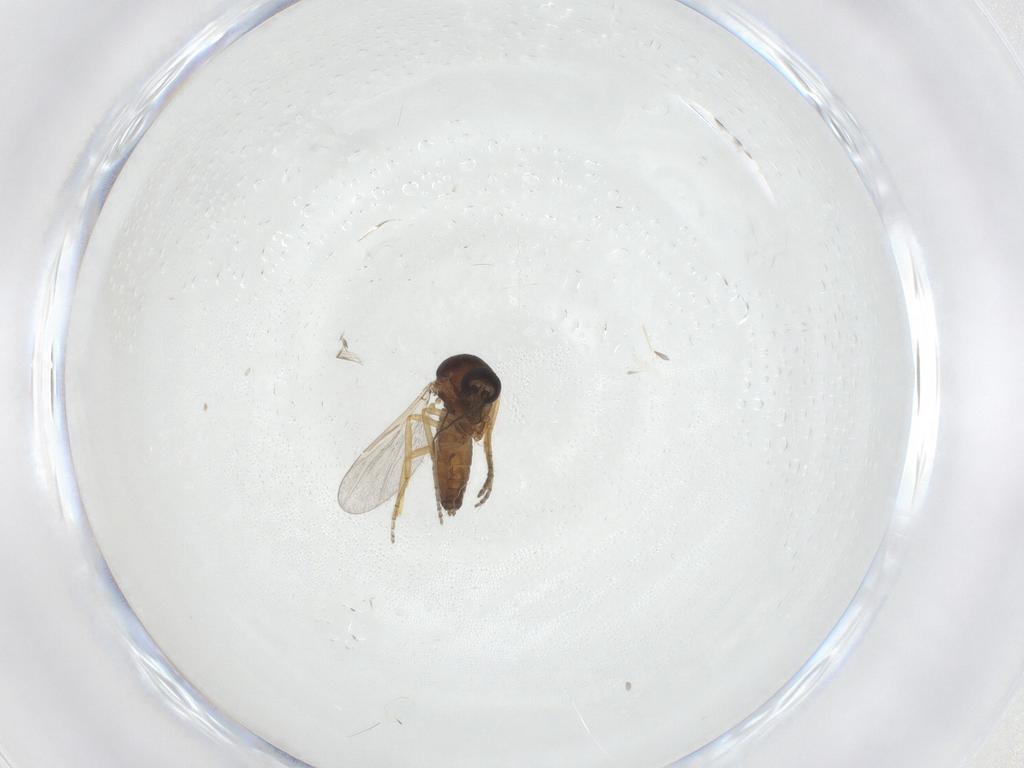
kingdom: Animalia
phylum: Arthropoda
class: Insecta
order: Diptera
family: Ceratopogonidae
